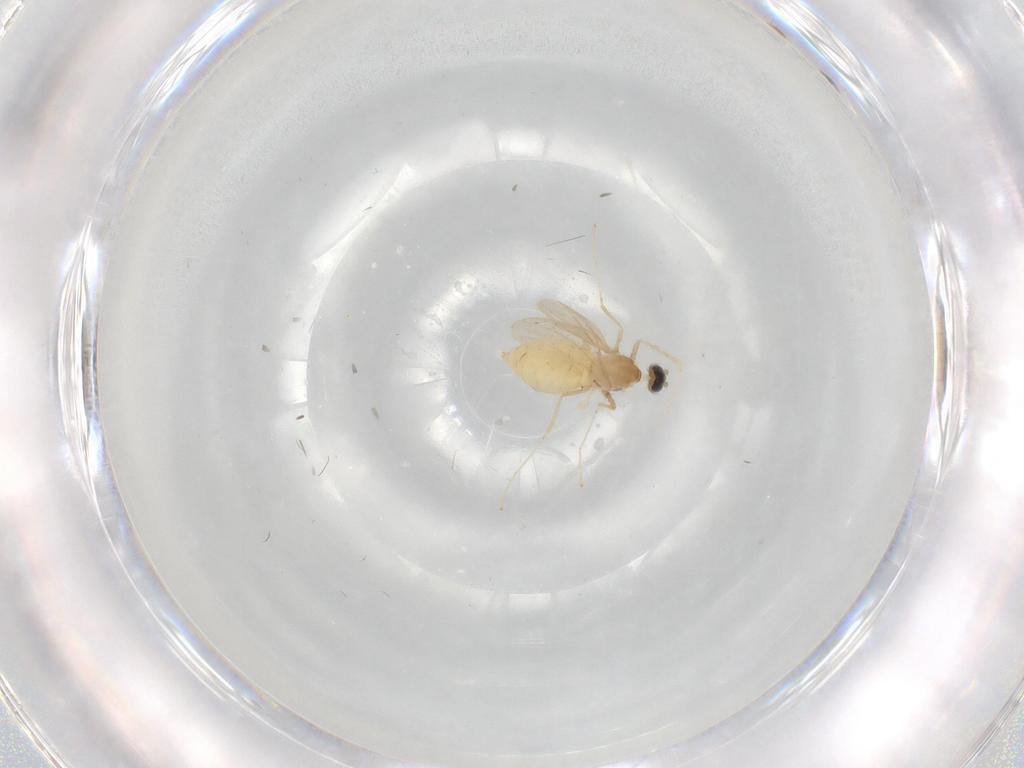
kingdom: Animalia
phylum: Arthropoda
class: Insecta
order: Diptera
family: Cecidomyiidae
